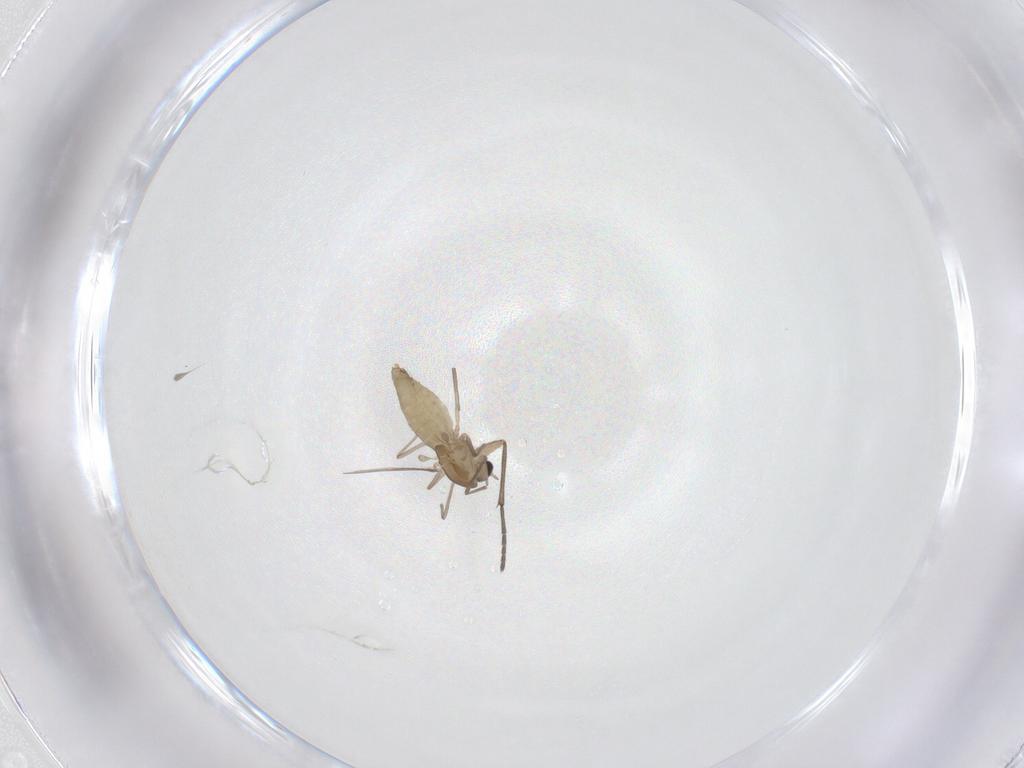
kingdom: Animalia
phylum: Arthropoda
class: Insecta
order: Diptera
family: Chironomidae
